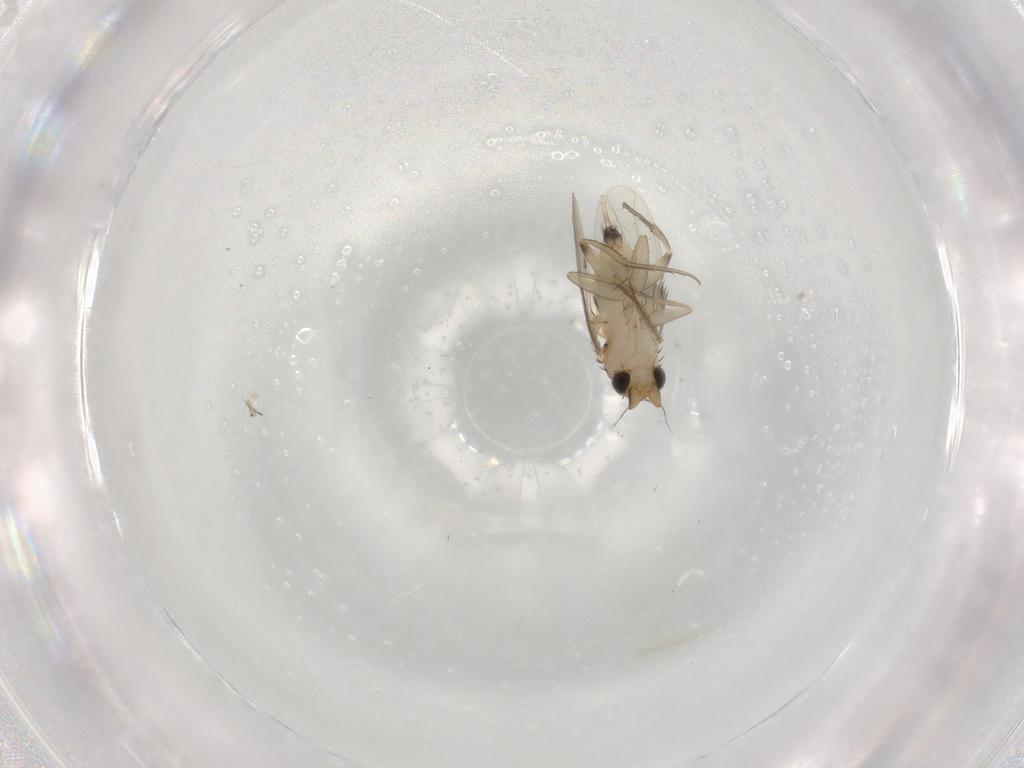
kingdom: Animalia
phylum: Arthropoda
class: Insecta
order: Diptera
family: Phoridae
